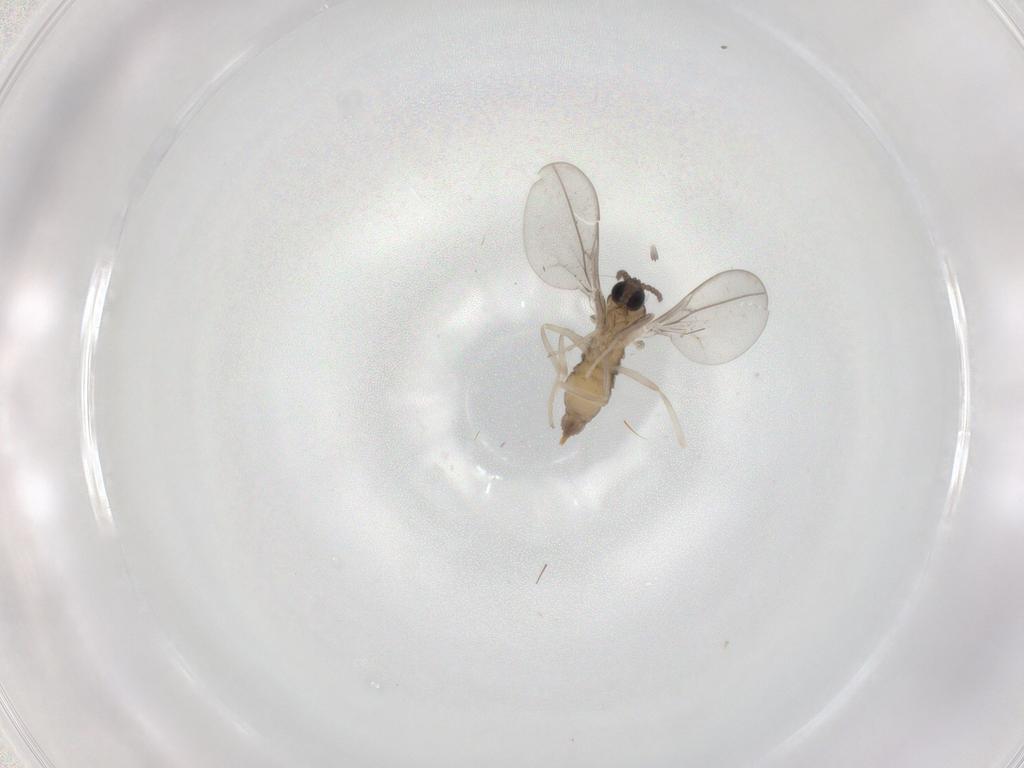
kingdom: Animalia
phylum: Arthropoda
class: Insecta
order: Diptera
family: Cecidomyiidae
